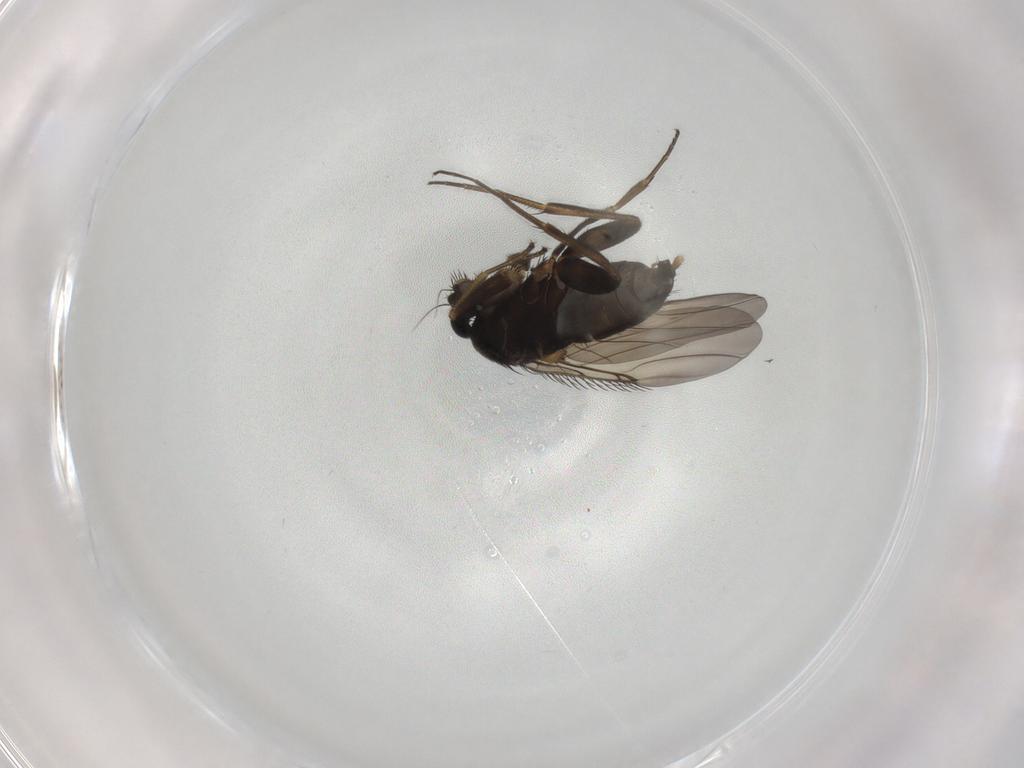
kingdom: Animalia
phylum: Arthropoda
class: Insecta
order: Diptera
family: Phoridae
